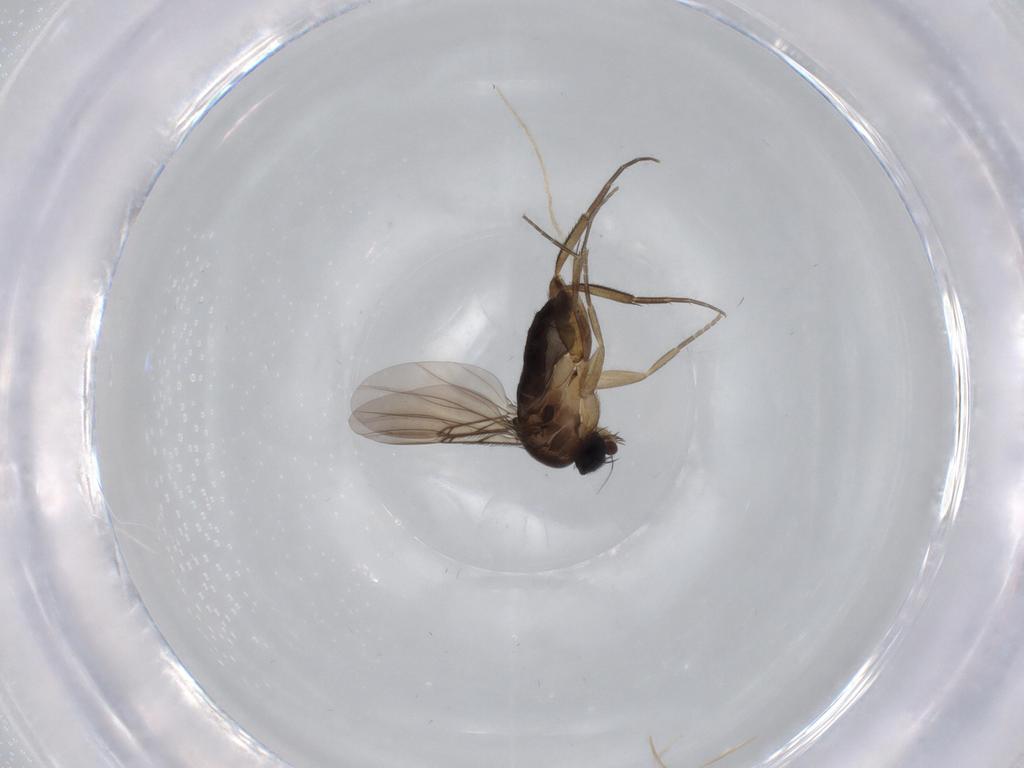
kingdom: Animalia
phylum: Arthropoda
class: Insecta
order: Diptera
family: Phoridae
